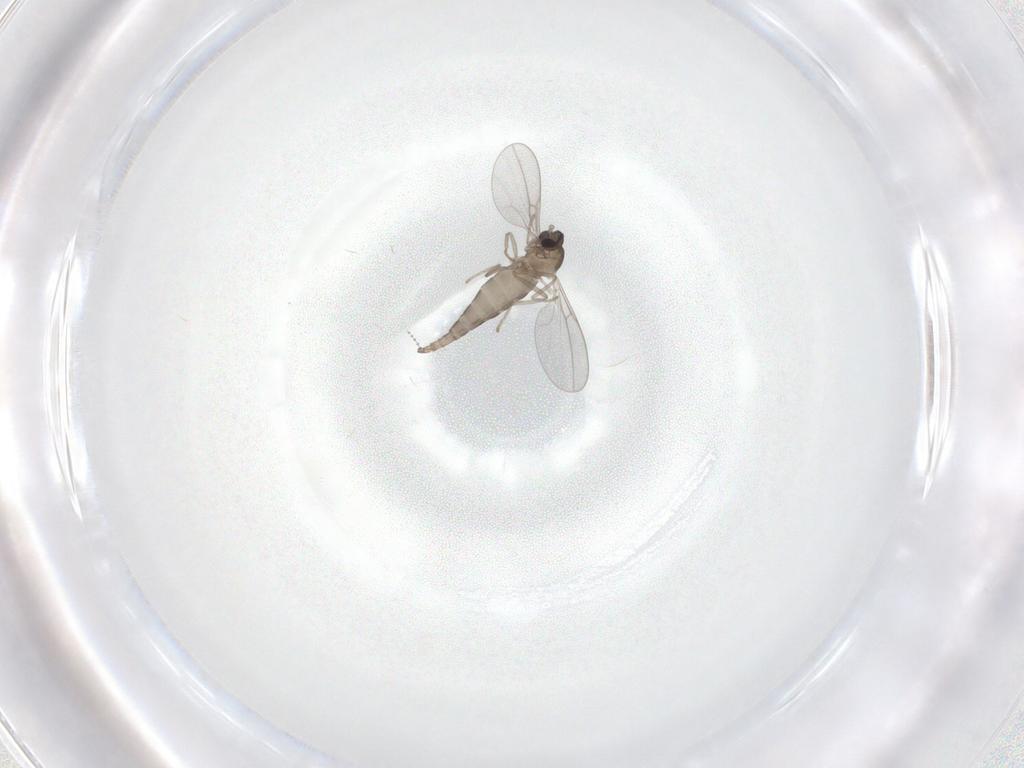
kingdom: Animalia
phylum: Arthropoda
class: Insecta
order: Diptera
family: Cecidomyiidae
